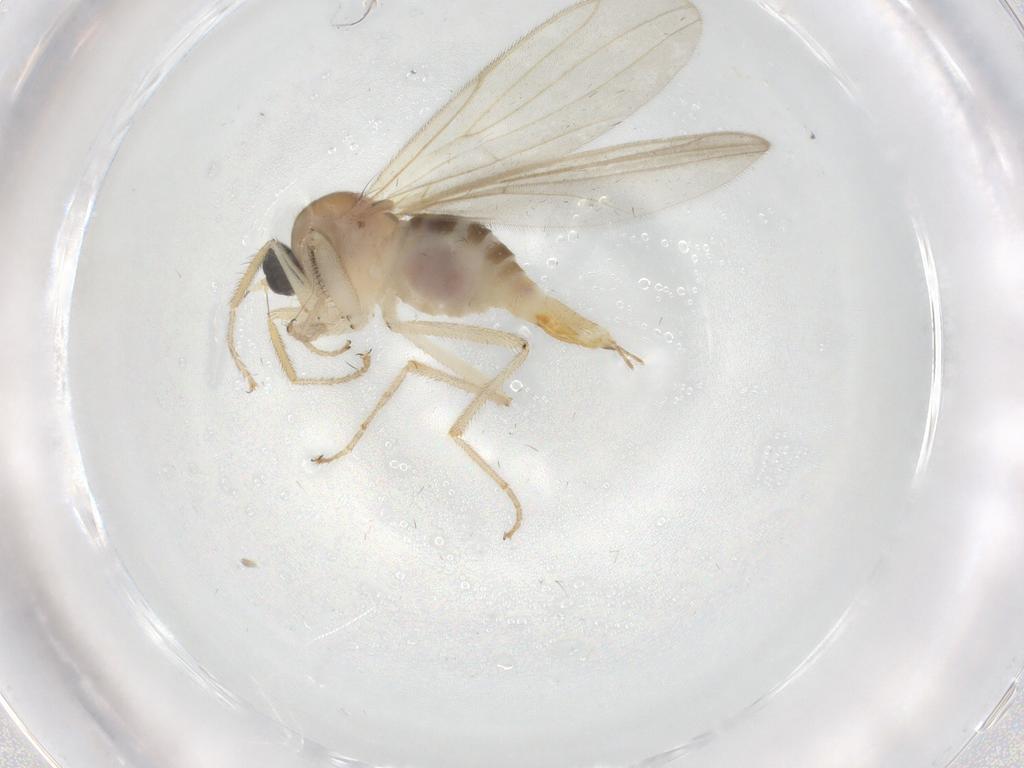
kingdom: Animalia
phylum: Arthropoda
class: Insecta
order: Diptera
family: Hybotidae
